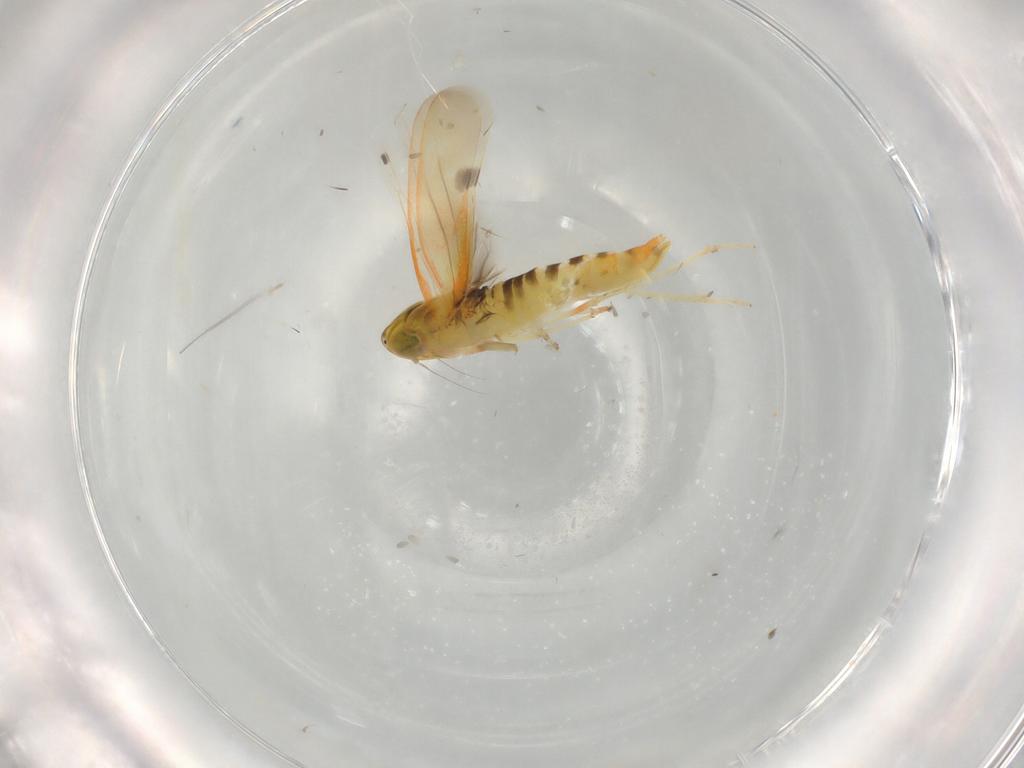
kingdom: Animalia
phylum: Arthropoda
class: Insecta
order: Hemiptera
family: Cicadellidae
